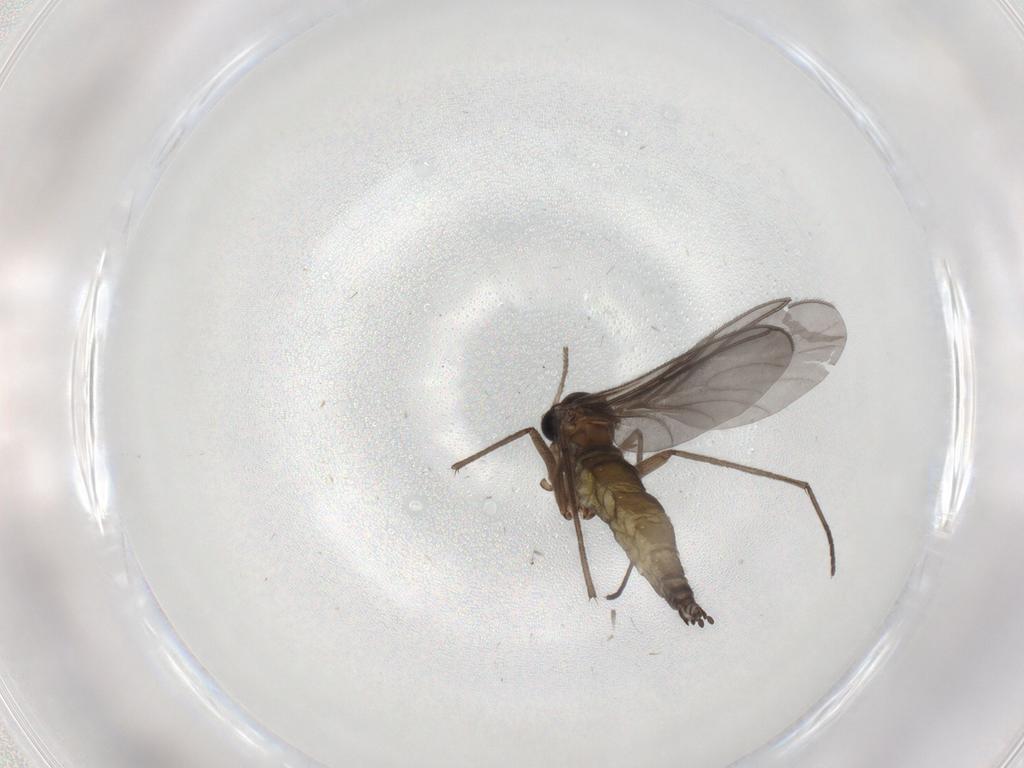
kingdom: Animalia
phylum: Arthropoda
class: Insecta
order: Diptera
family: Sciaridae
